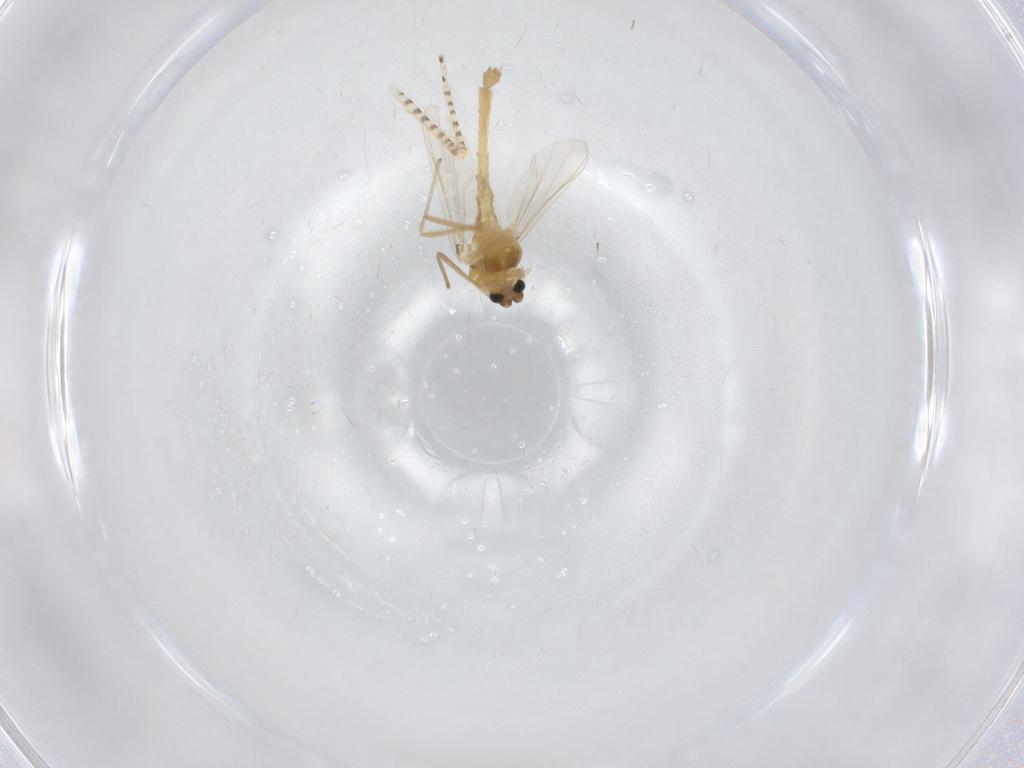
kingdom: Animalia
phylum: Arthropoda
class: Insecta
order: Diptera
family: Chironomidae
